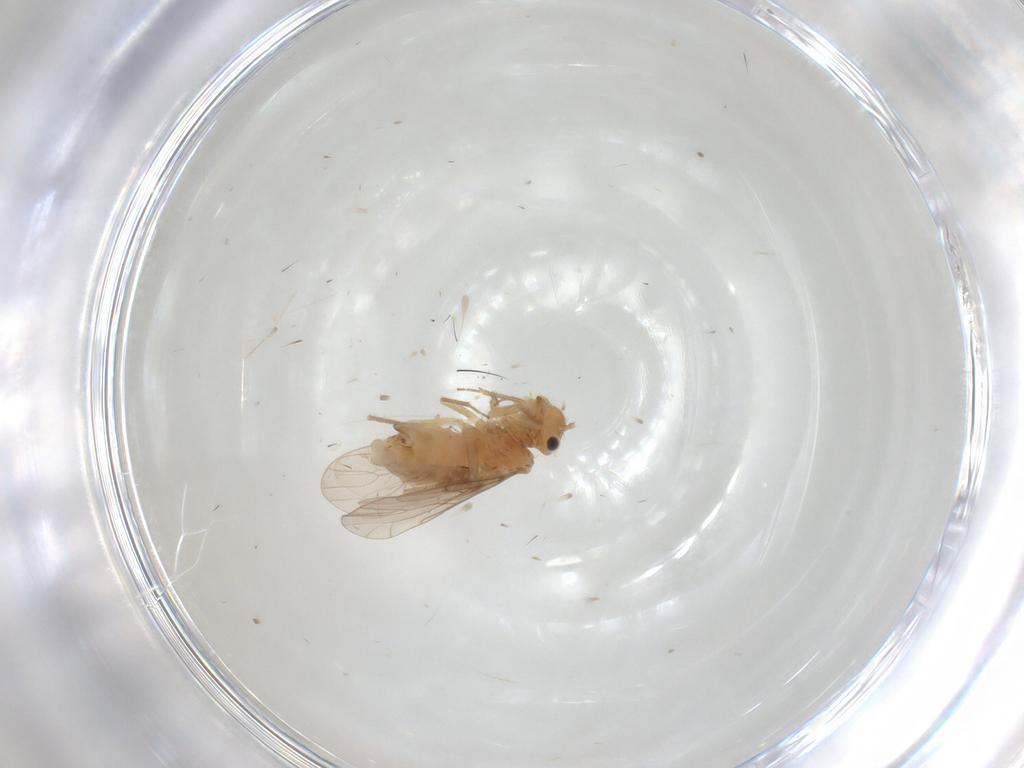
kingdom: Animalia
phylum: Arthropoda
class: Insecta
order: Psocodea
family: Ectopsocidae
